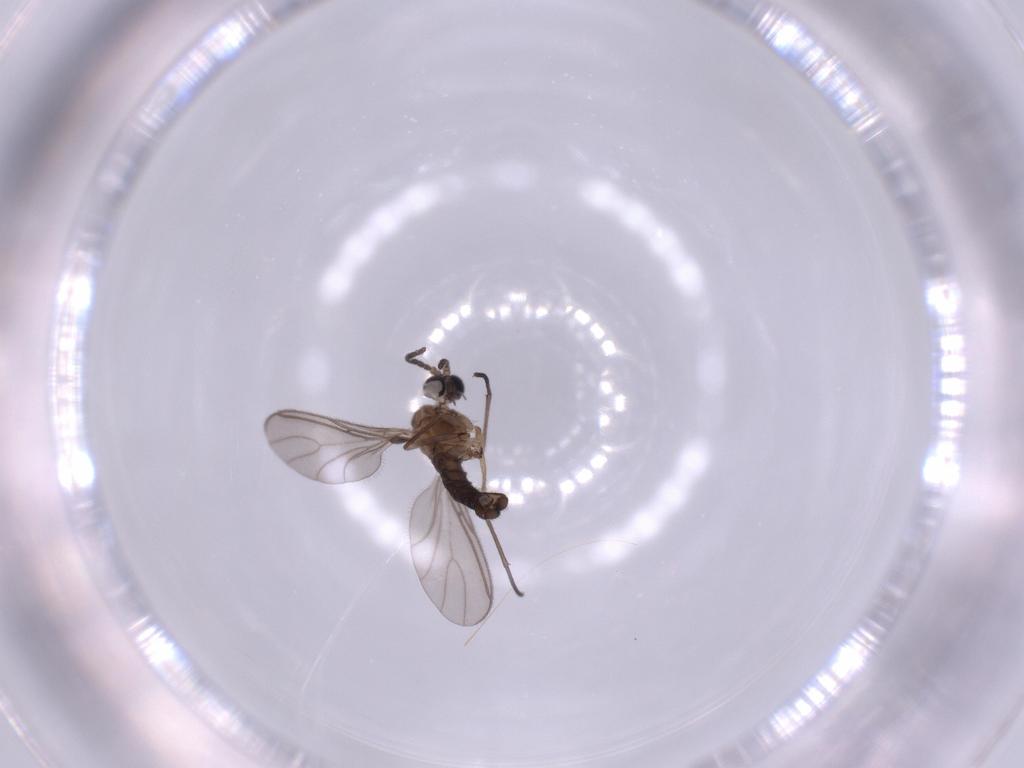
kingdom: Animalia
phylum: Arthropoda
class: Insecta
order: Diptera
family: Sciaridae
